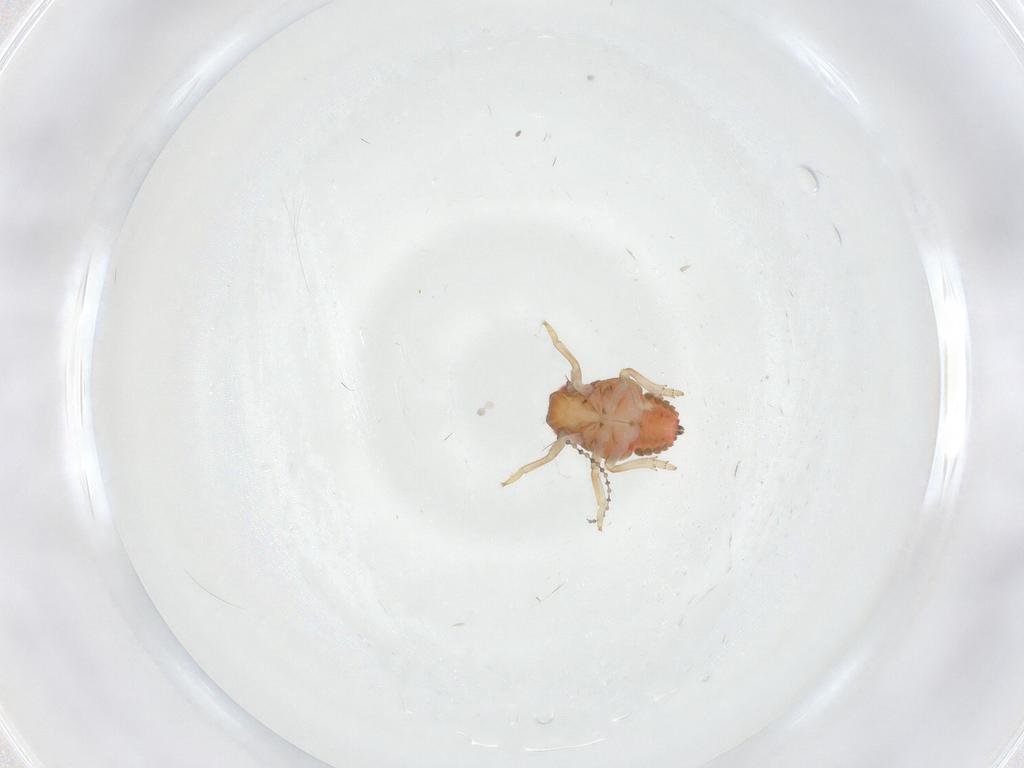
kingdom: Animalia
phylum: Arthropoda
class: Insecta
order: Hemiptera
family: Issidae
